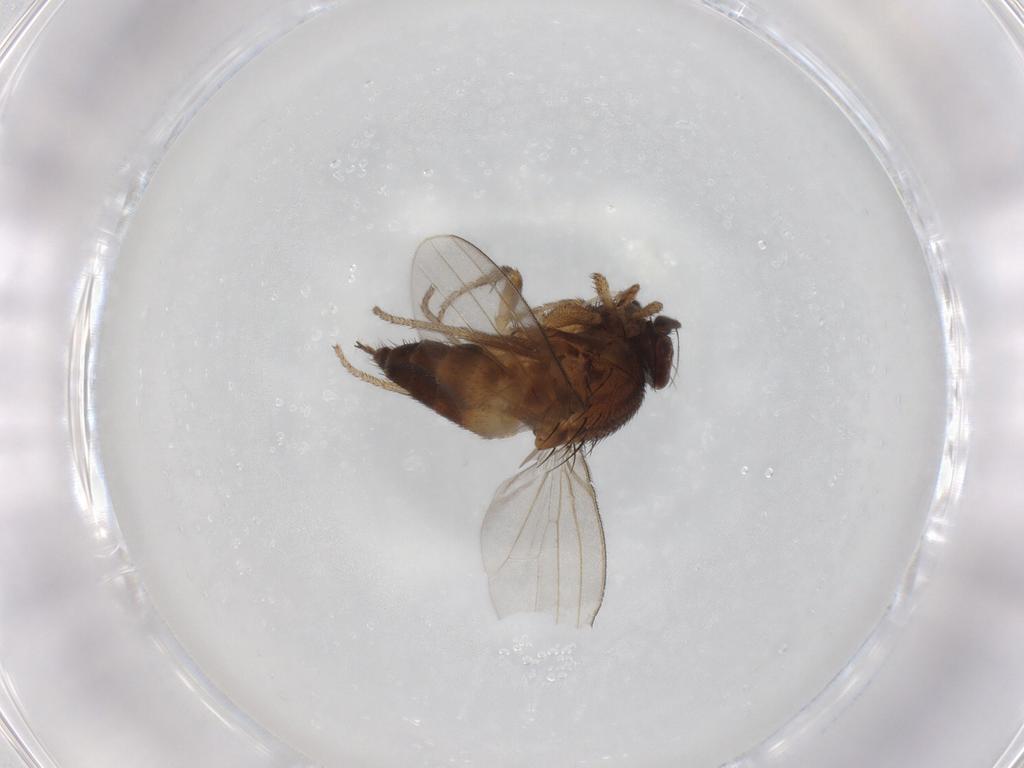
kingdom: Animalia
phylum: Arthropoda
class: Insecta
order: Diptera
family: Milichiidae
